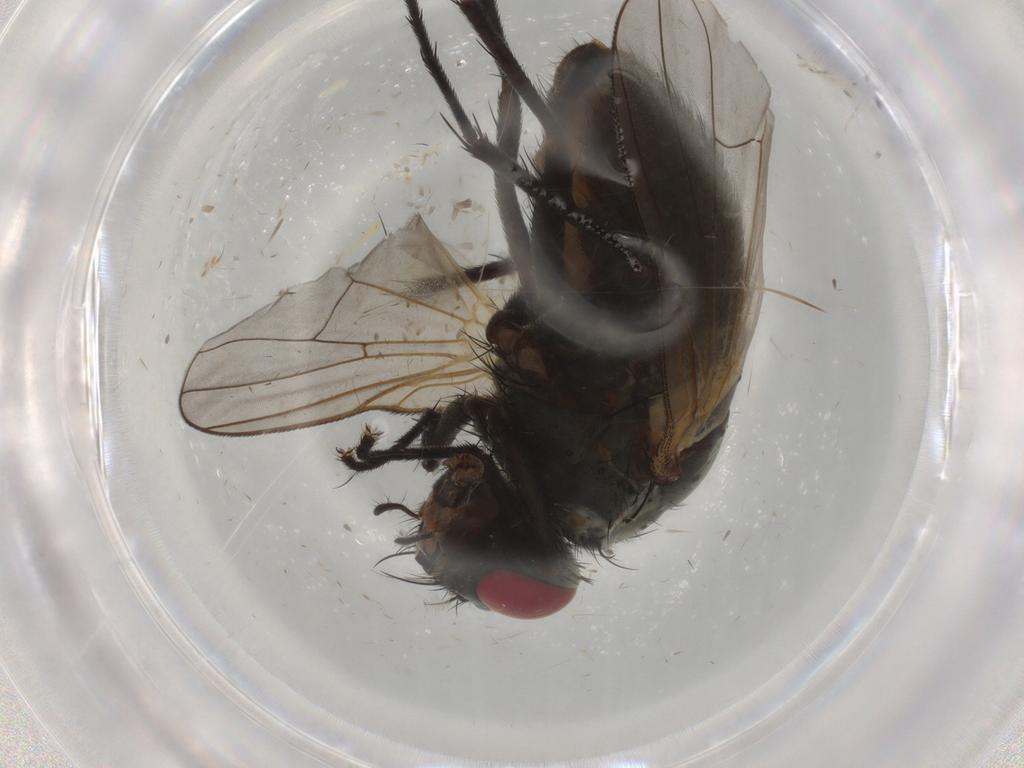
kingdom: Animalia
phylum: Arthropoda
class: Insecta
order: Diptera
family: Muscidae
